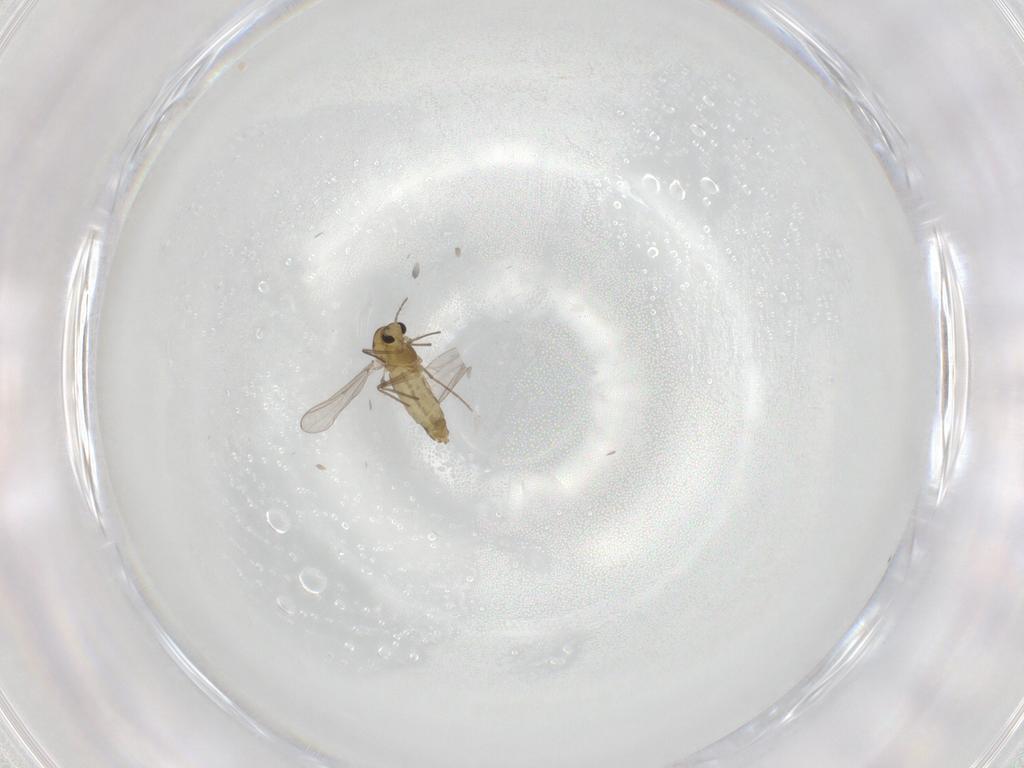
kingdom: Animalia
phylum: Arthropoda
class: Insecta
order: Diptera
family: Chironomidae
